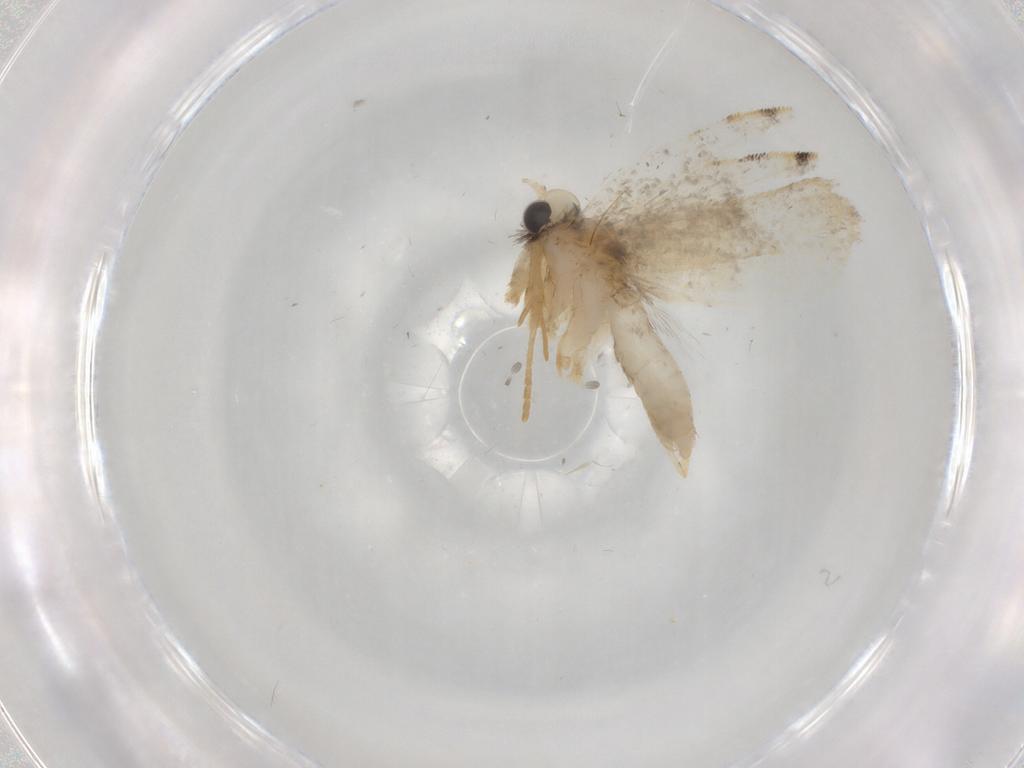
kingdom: Animalia
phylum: Arthropoda
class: Insecta
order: Lepidoptera
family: Psychidae
